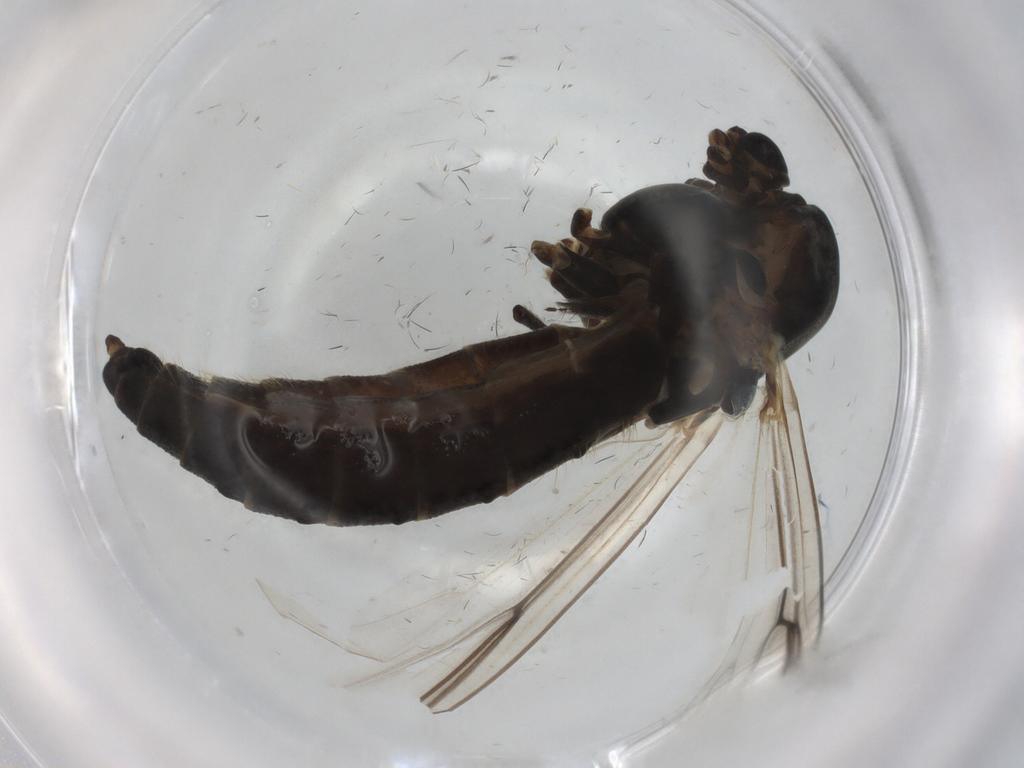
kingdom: Animalia
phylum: Arthropoda
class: Insecta
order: Diptera
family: Chironomidae
